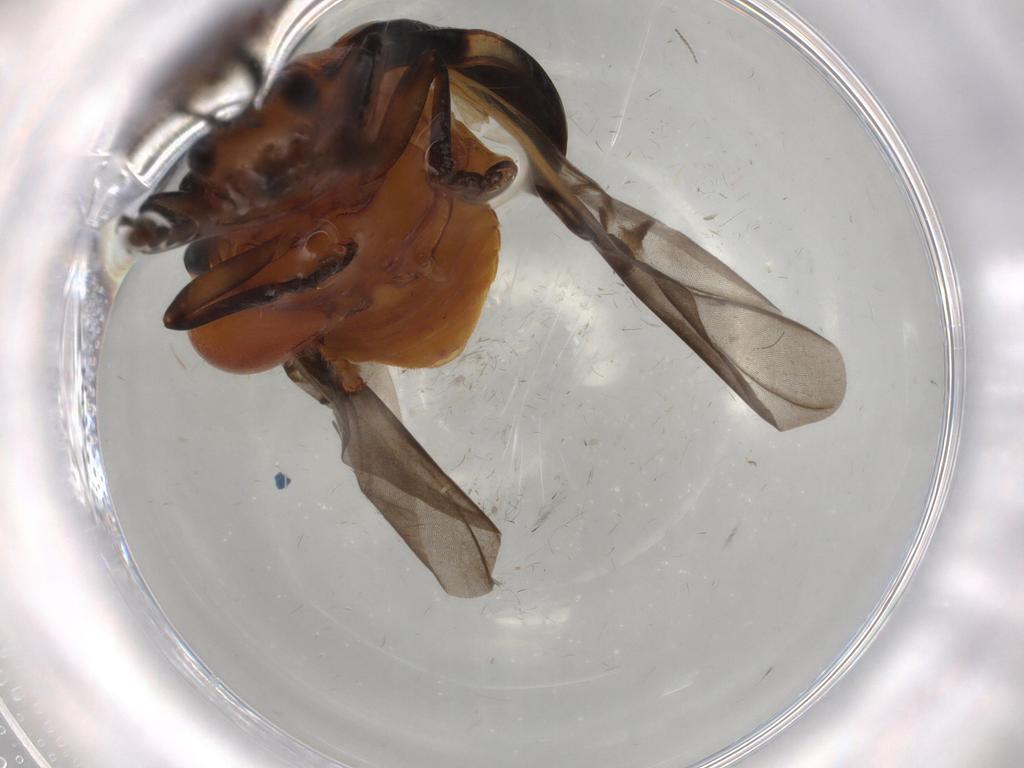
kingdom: Animalia
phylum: Arthropoda
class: Insecta
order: Coleoptera
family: Chrysomelidae
